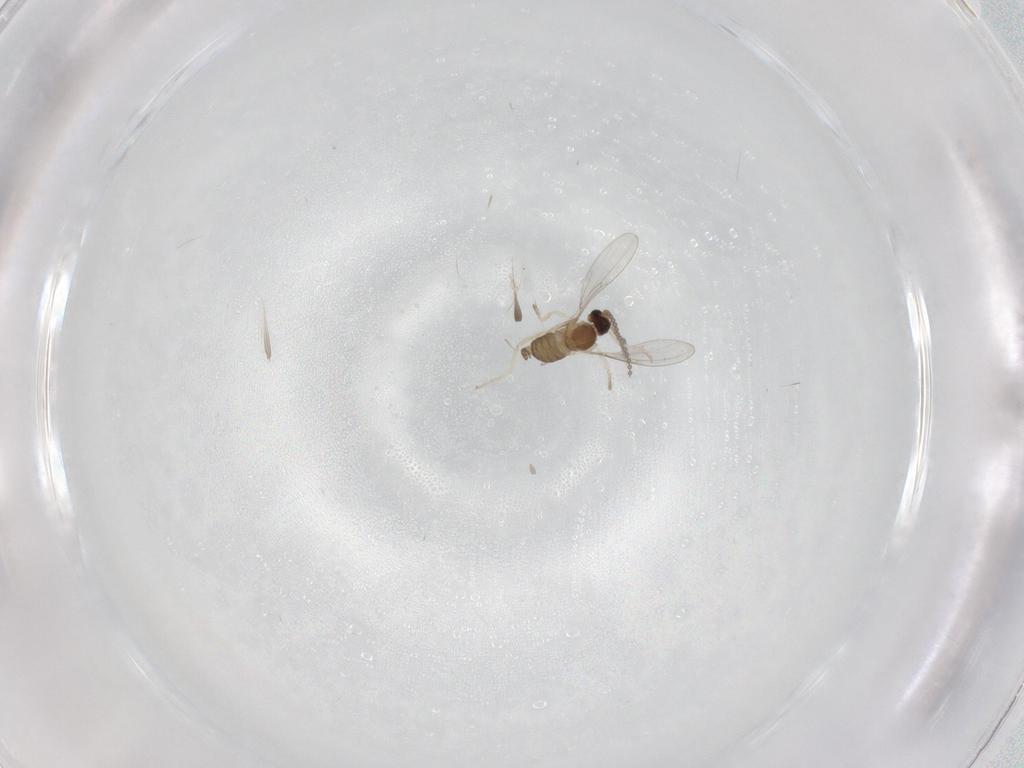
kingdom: Animalia
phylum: Arthropoda
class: Insecta
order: Diptera
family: Cecidomyiidae
